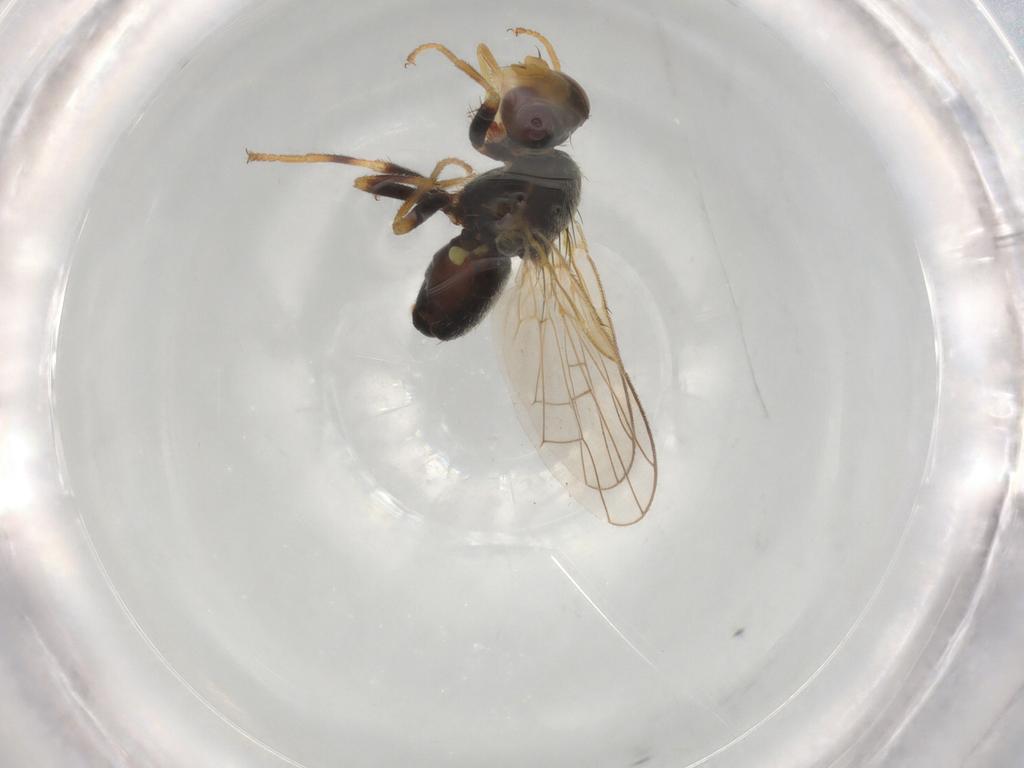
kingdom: Animalia
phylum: Arthropoda
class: Insecta
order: Diptera
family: Tephritidae
